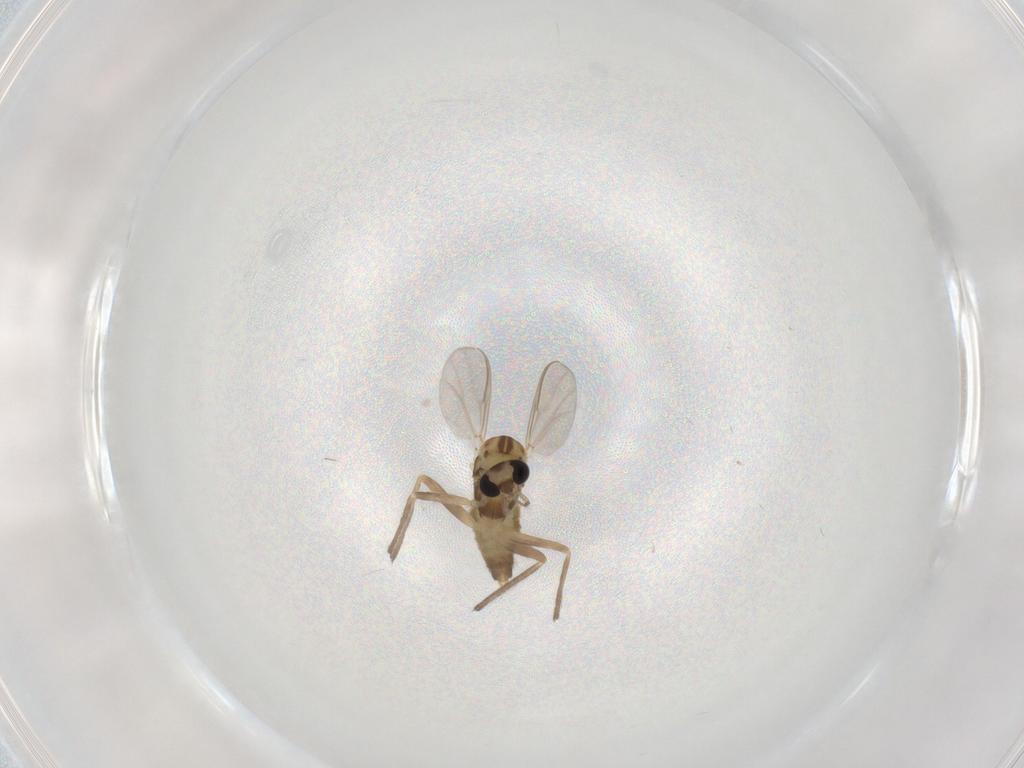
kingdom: Animalia
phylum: Arthropoda
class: Insecta
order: Diptera
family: Chironomidae
